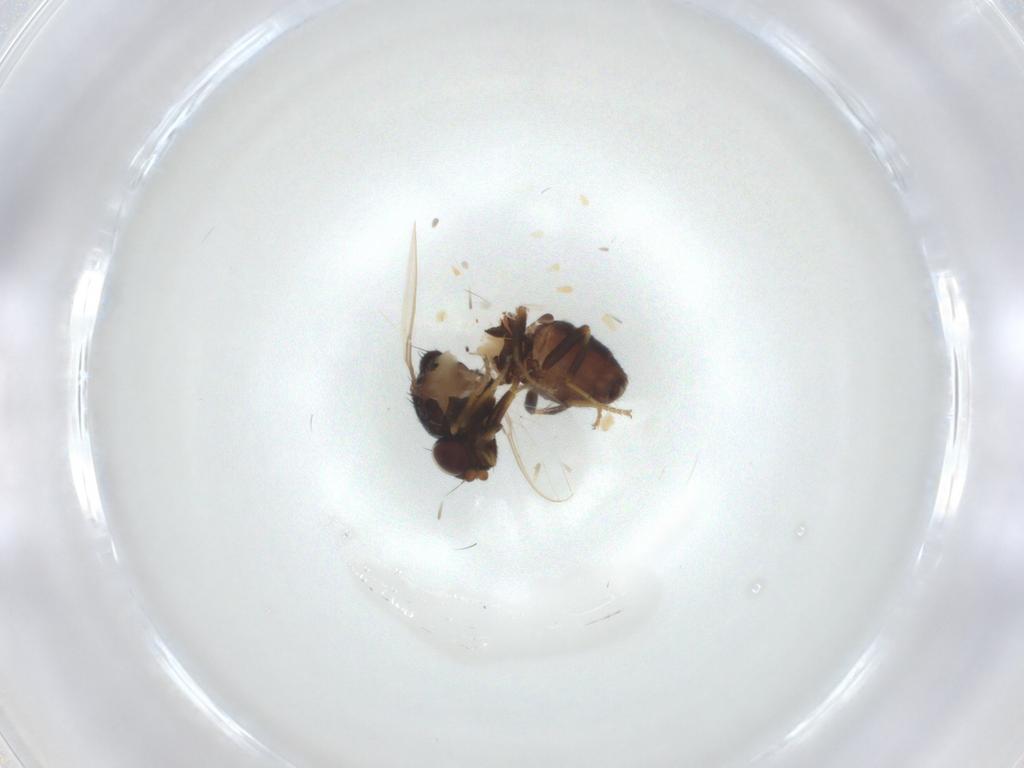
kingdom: Animalia
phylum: Arthropoda
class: Insecta
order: Diptera
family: Chloropidae
